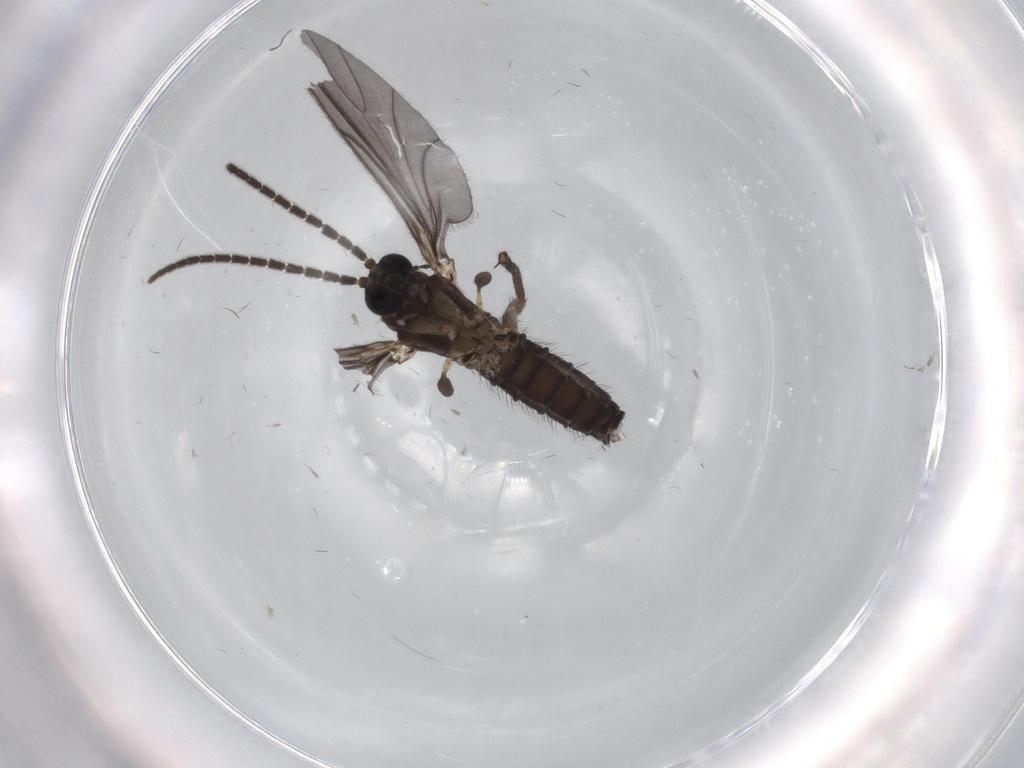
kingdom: Animalia
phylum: Arthropoda
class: Insecta
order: Diptera
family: Sciaridae
